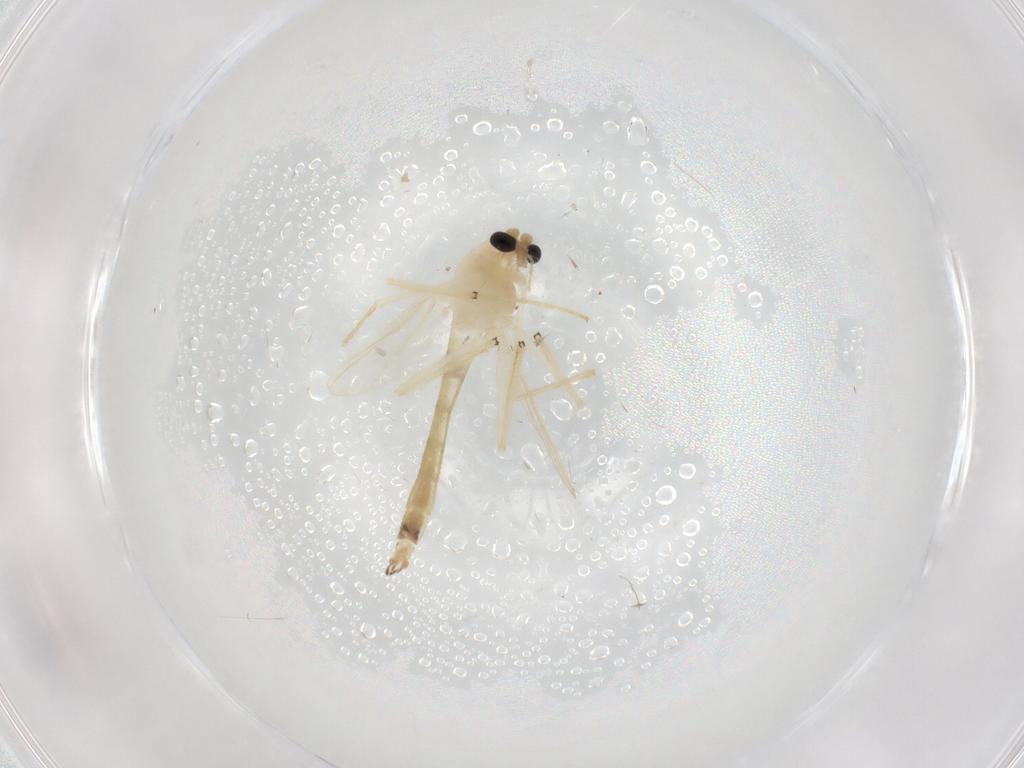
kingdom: Animalia
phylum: Arthropoda
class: Insecta
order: Diptera
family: Chironomidae
